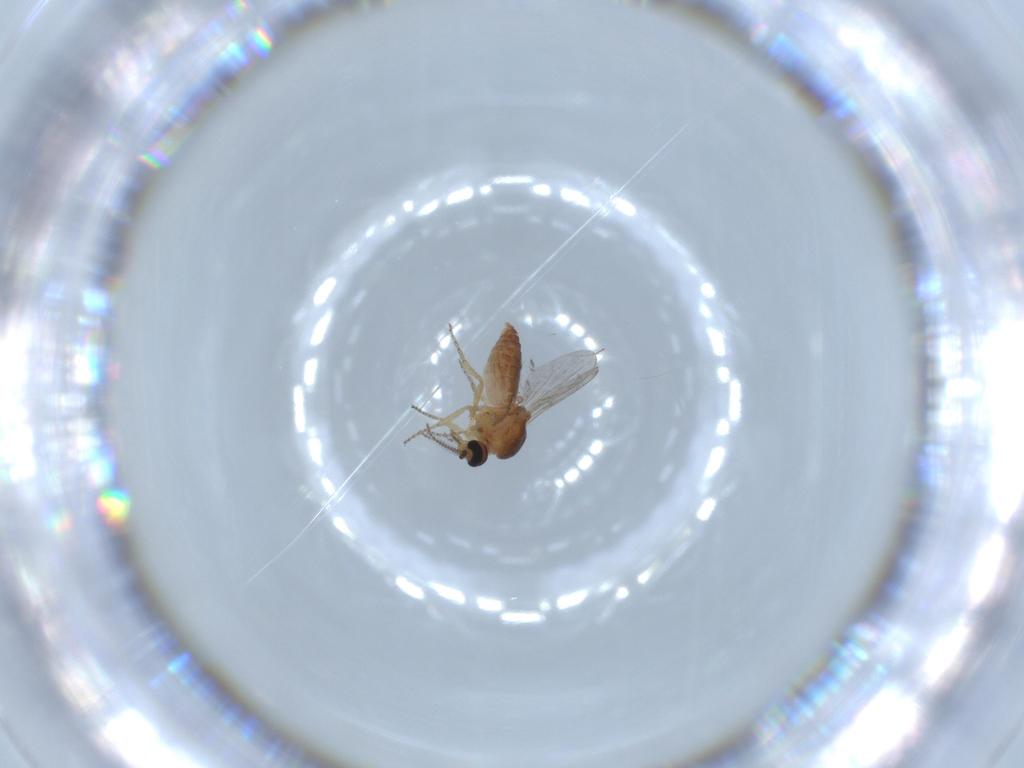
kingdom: Animalia
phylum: Arthropoda
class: Insecta
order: Diptera
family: Ceratopogonidae
